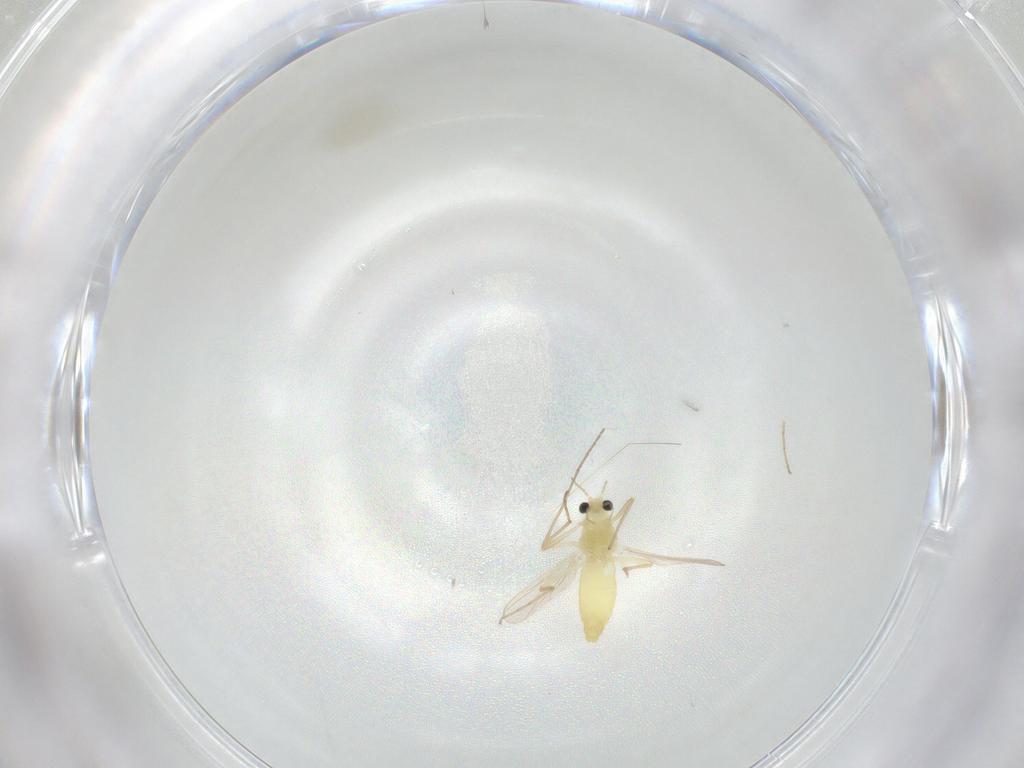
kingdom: Animalia
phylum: Arthropoda
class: Insecta
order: Diptera
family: Chironomidae
